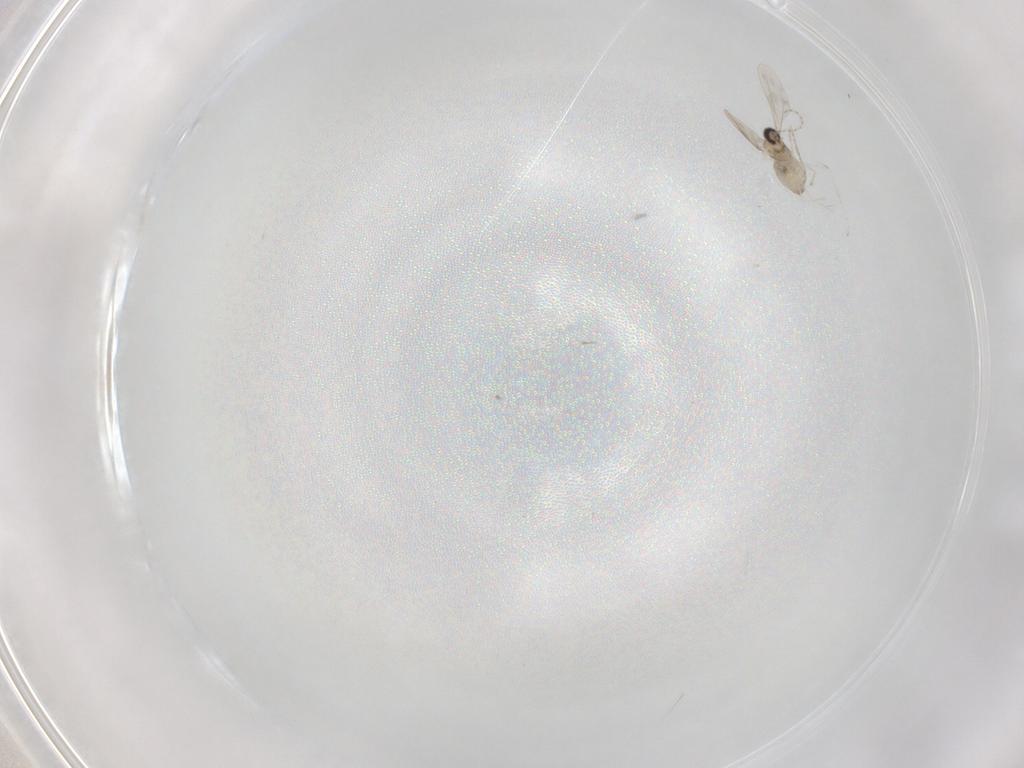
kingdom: Animalia
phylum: Arthropoda
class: Insecta
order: Diptera
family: Cecidomyiidae
